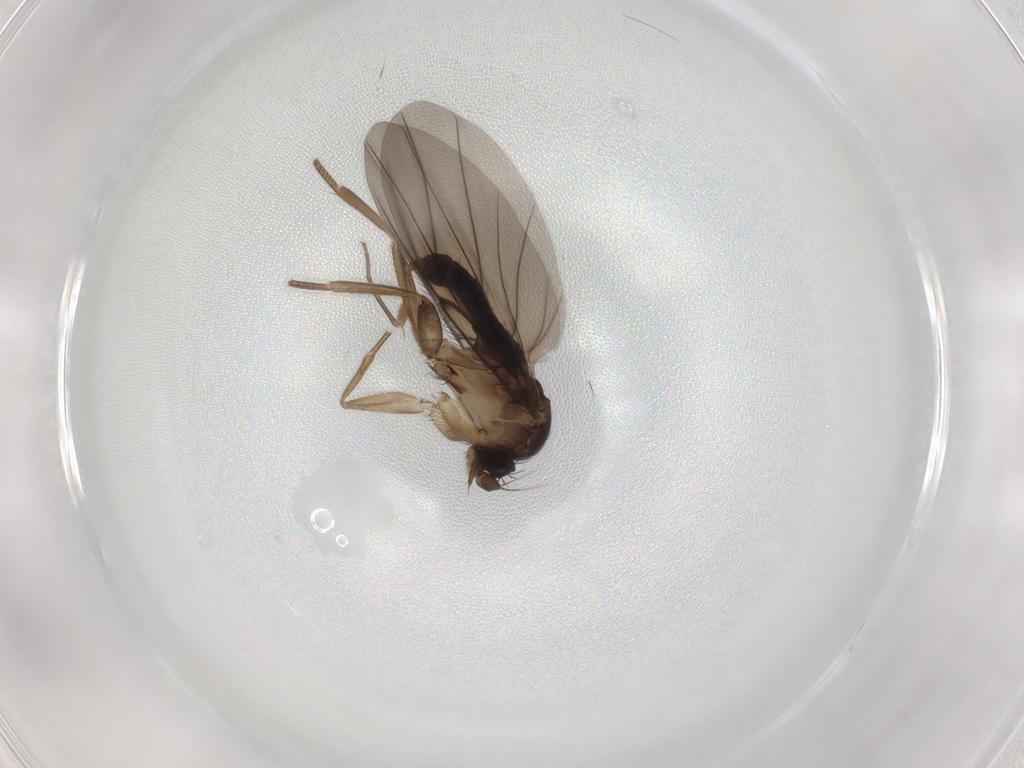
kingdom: Animalia
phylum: Arthropoda
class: Insecta
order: Diptera
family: Phoridae
